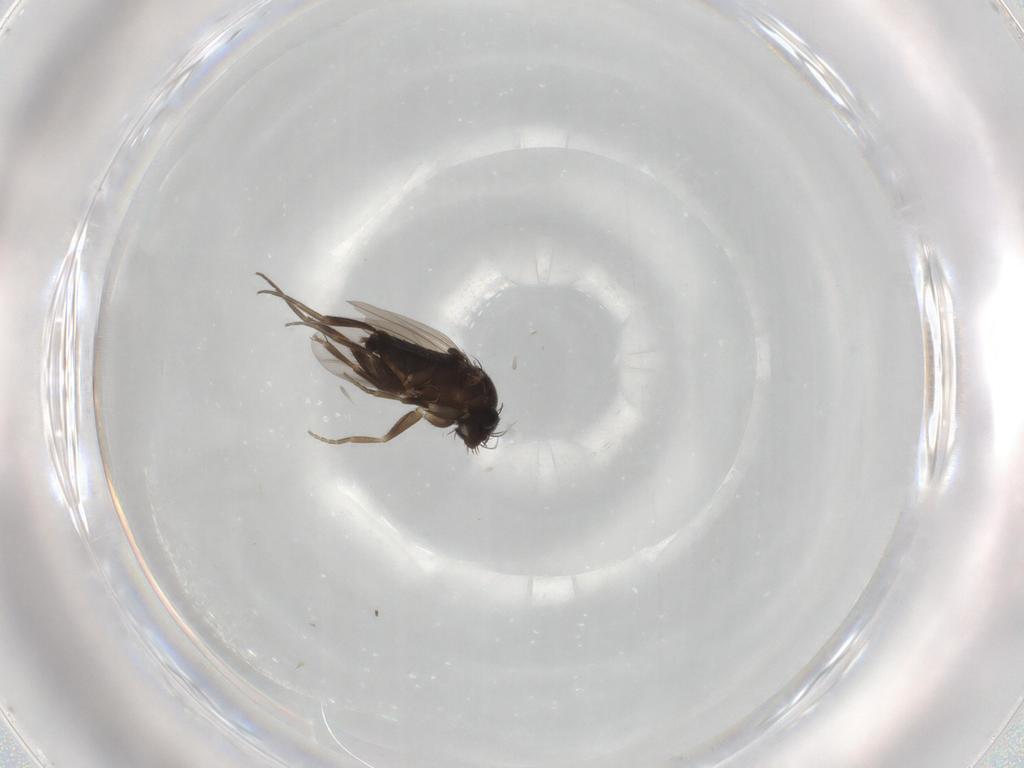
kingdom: Animalia
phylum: Arthropoda
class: Insecta
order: Diptera
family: Phoridae
